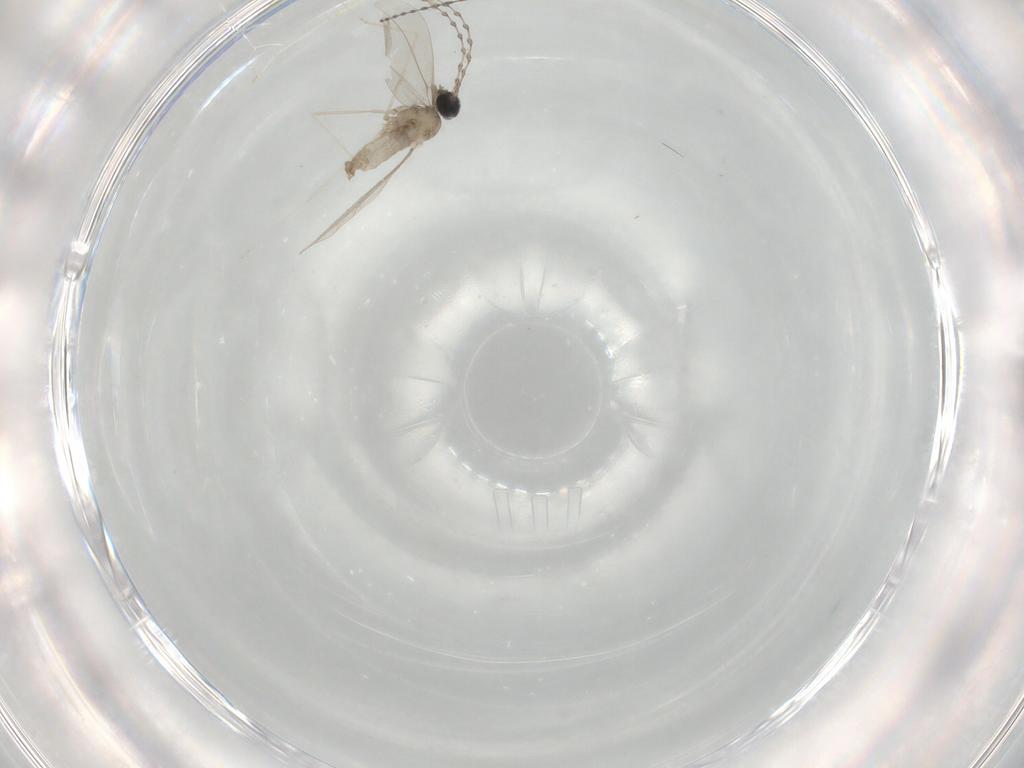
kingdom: Animalia
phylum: Arthropoda
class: Insecta
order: Diptera
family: Cecidomyiidae
